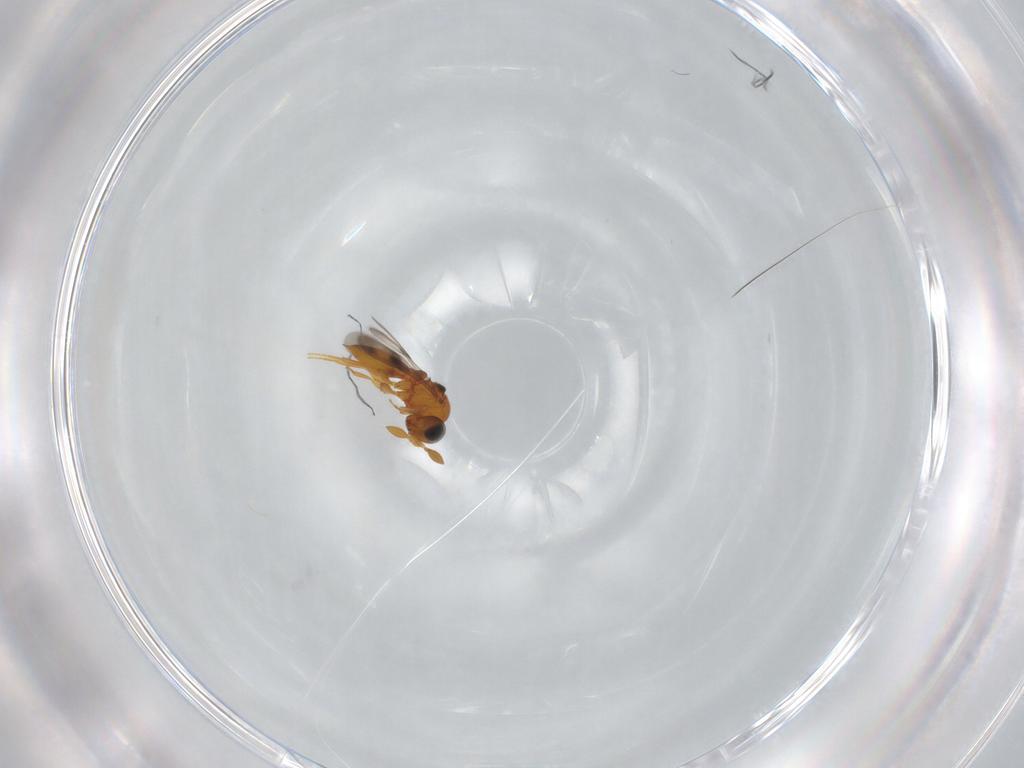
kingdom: Animalia
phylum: Arthropoda
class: Insecta
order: Hymenoptera
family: Scelionidae
